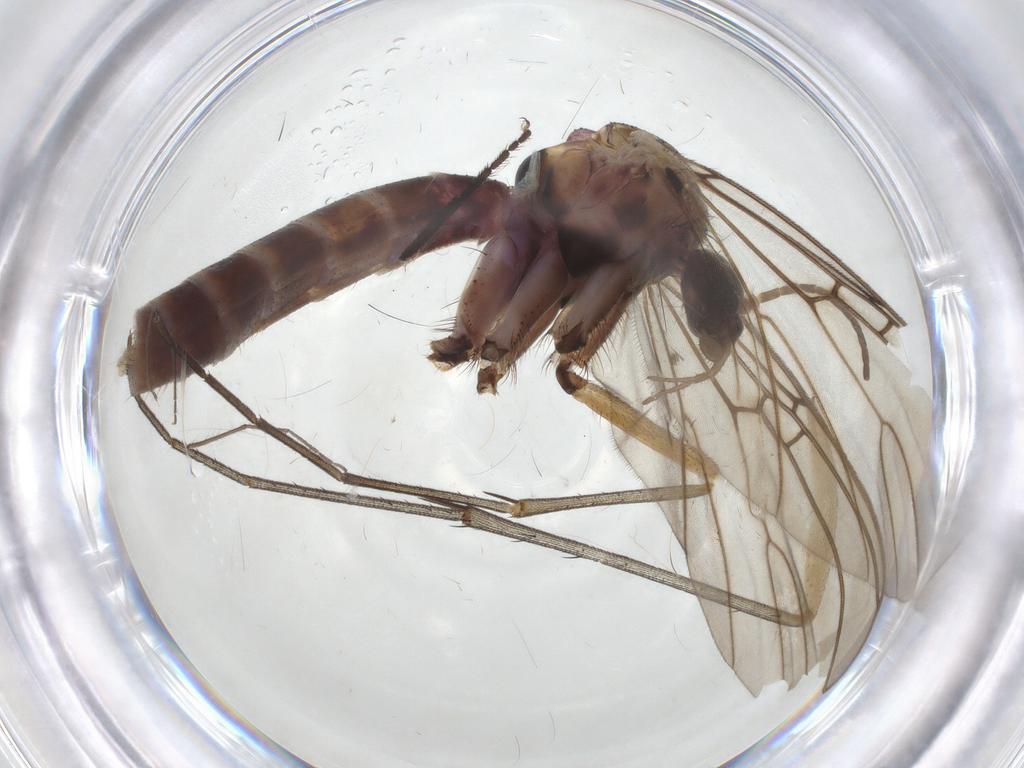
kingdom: Animalia
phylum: Arthropoda
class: Insecta
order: Diptera
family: Mycetophilidae
